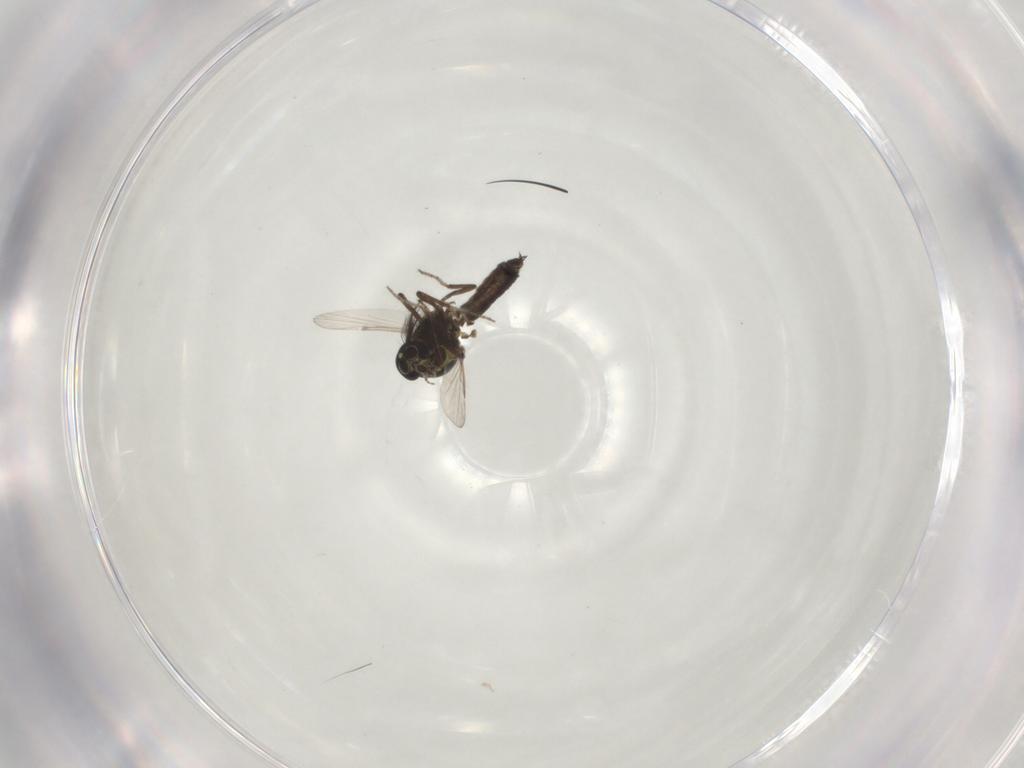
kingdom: Animalia
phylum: Arthropoda
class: Insecta
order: Diptera
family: Ceratopogonidae
